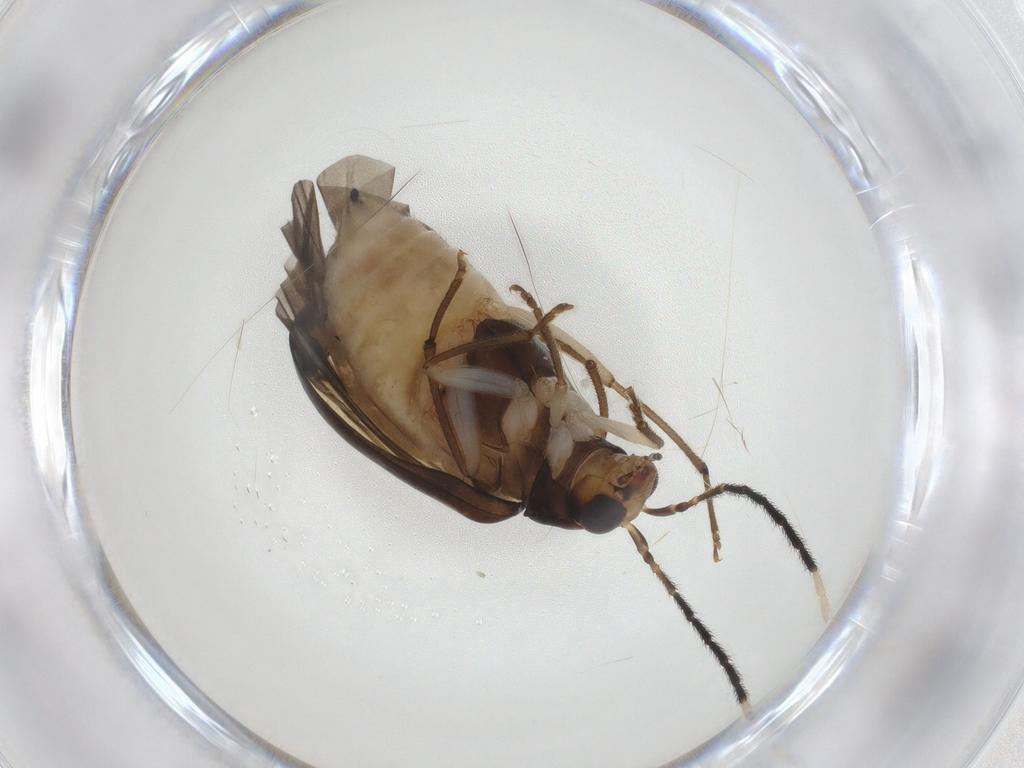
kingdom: Animalia
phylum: Arthropoda
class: Insecta
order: Coleoptera
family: Chrysomelidae
